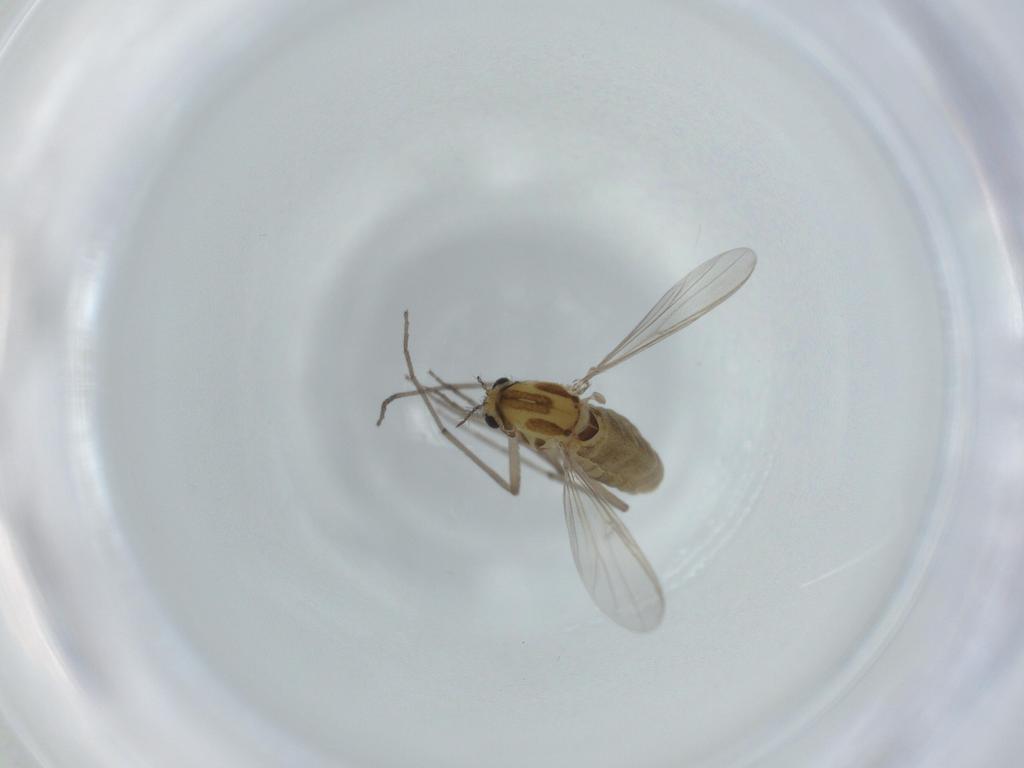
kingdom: Animalia
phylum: Arthropoda
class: Insecta
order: Diptera
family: Chironomidae
